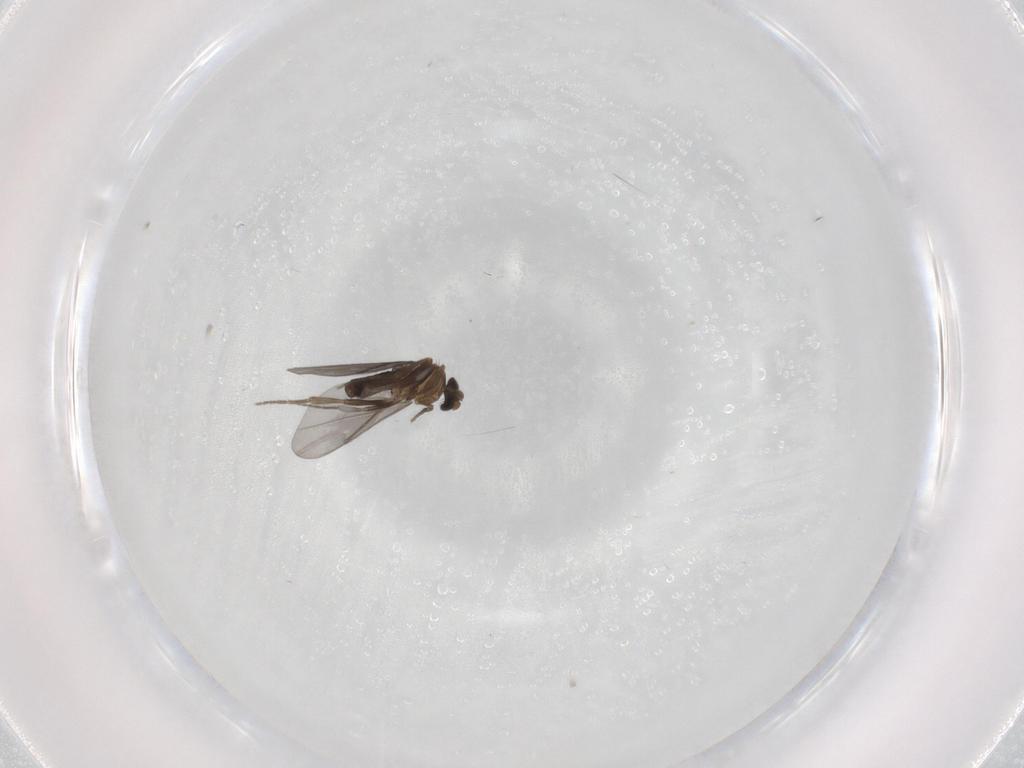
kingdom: Animalia
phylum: Arthropoda
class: Insecta
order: Diptera
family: Phoridae
